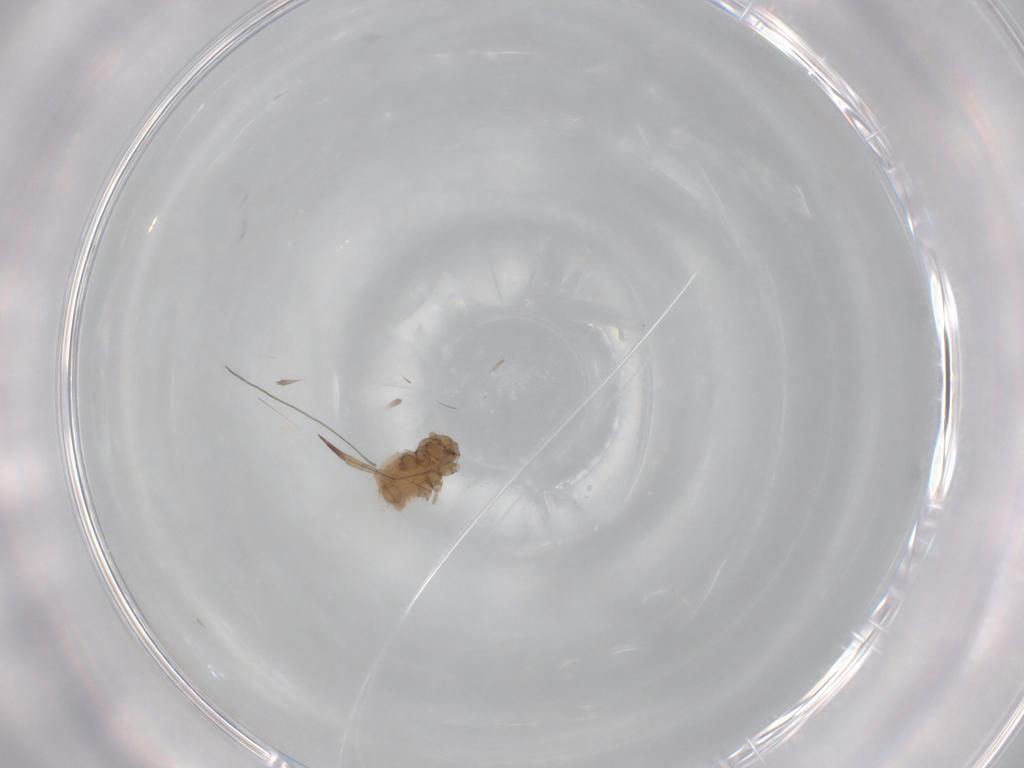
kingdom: Animalia
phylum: Arthropoda
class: Insecta
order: Hemiptera
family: Aphididae
